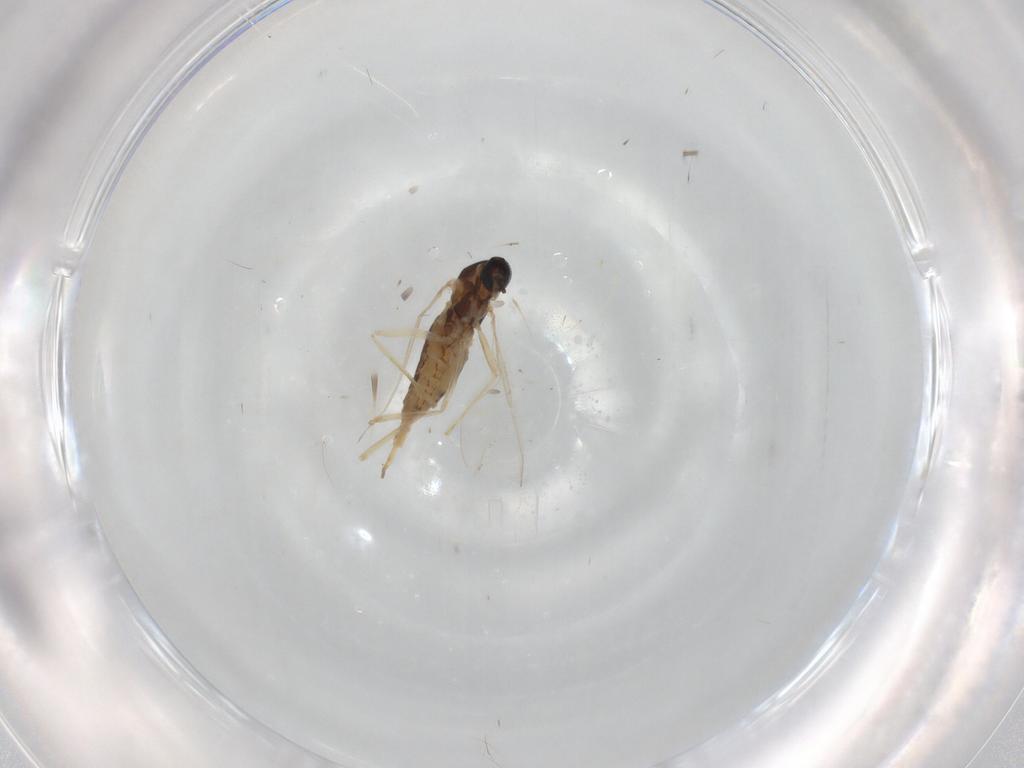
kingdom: Animalia
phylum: Arthropoda
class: Insecta
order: Diptera
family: Cecidomyiidae
